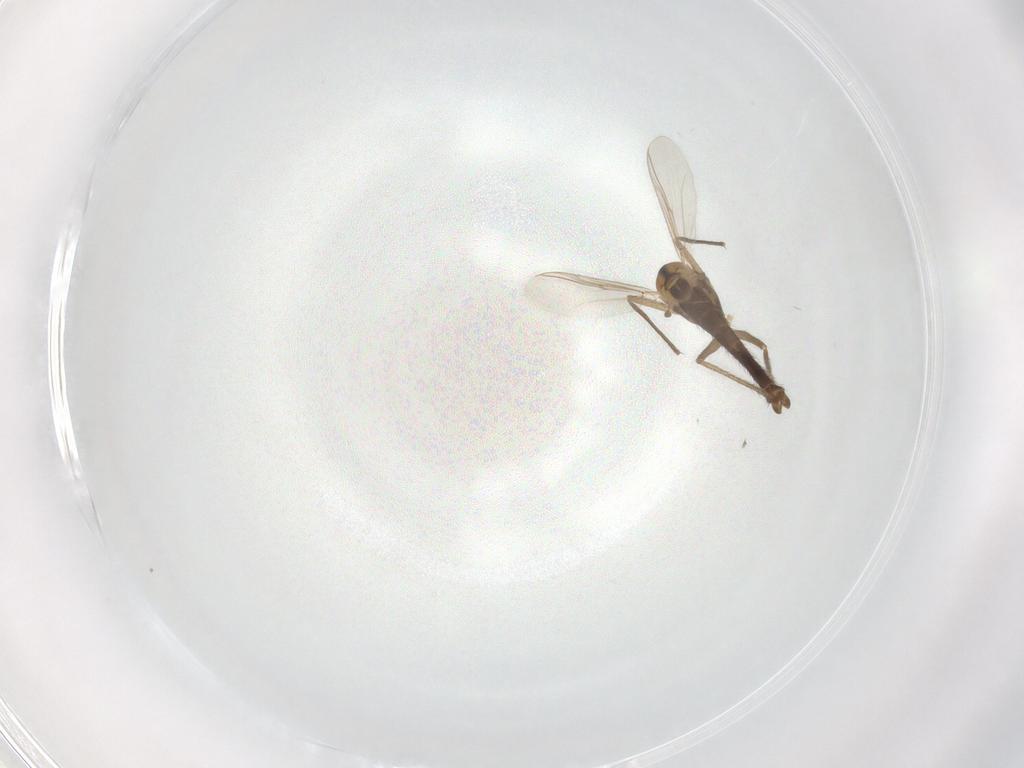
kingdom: Animalia
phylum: Arthropoda
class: Insecta
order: Diptera
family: Chironomidae
